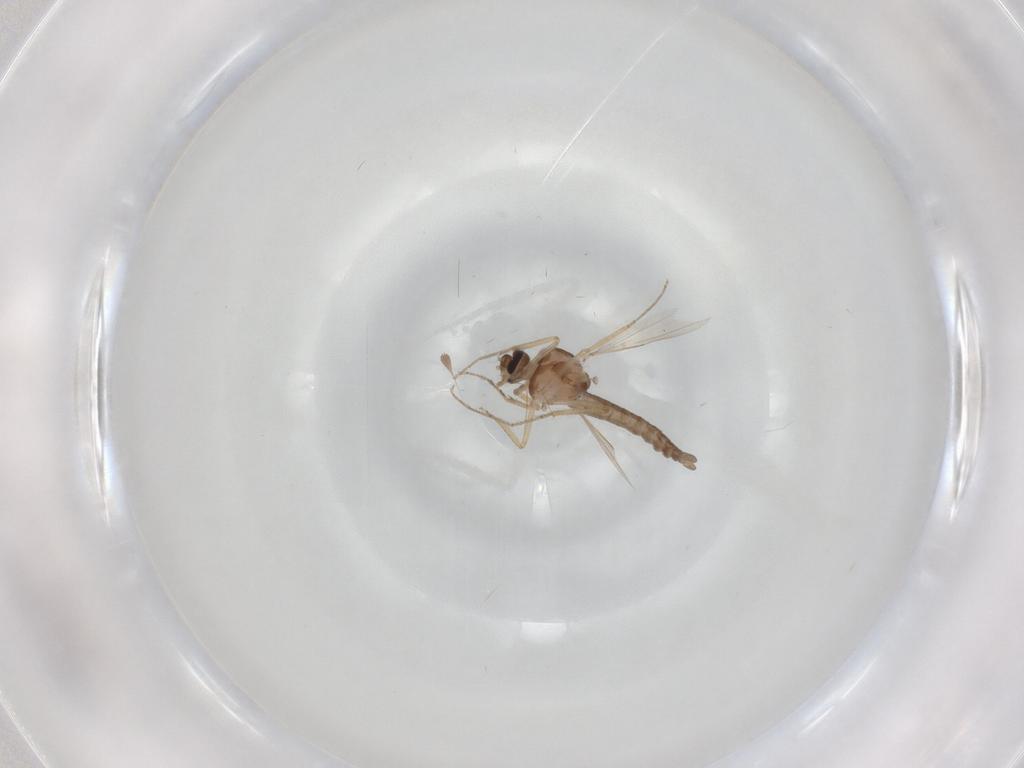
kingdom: Animalia
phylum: Arthropoda
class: Insecta
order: Diptera
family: Ceratopogonidae
